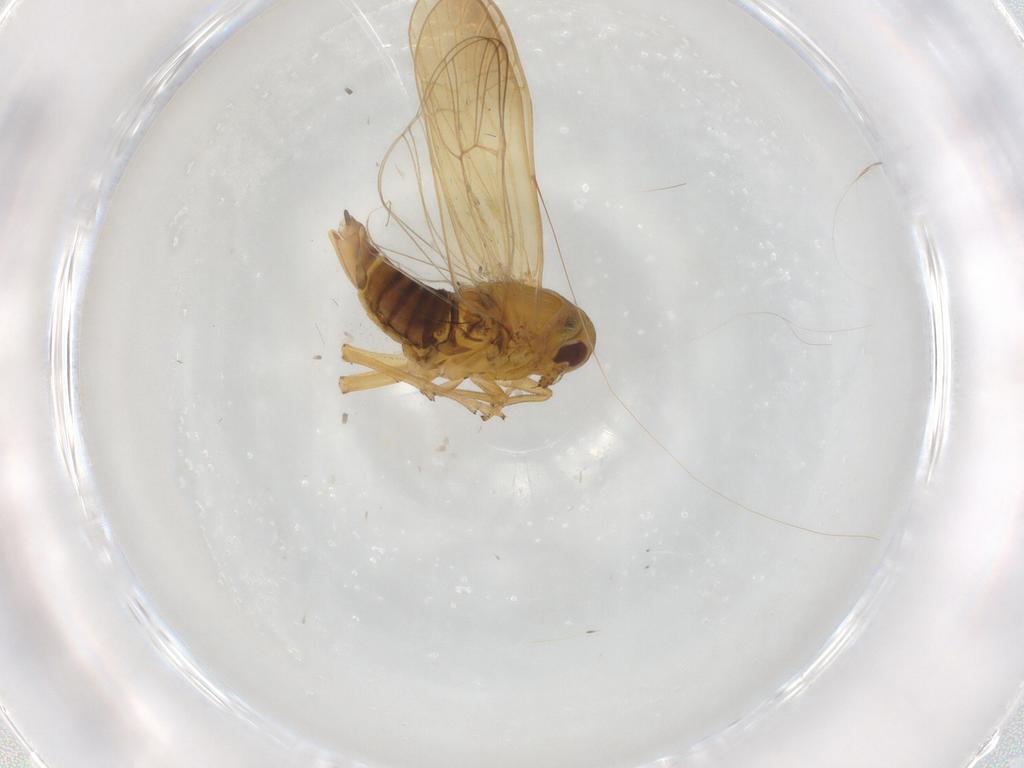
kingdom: Animalia
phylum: Arthropoda
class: Insecta
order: Hemiptera
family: Delphacidae
